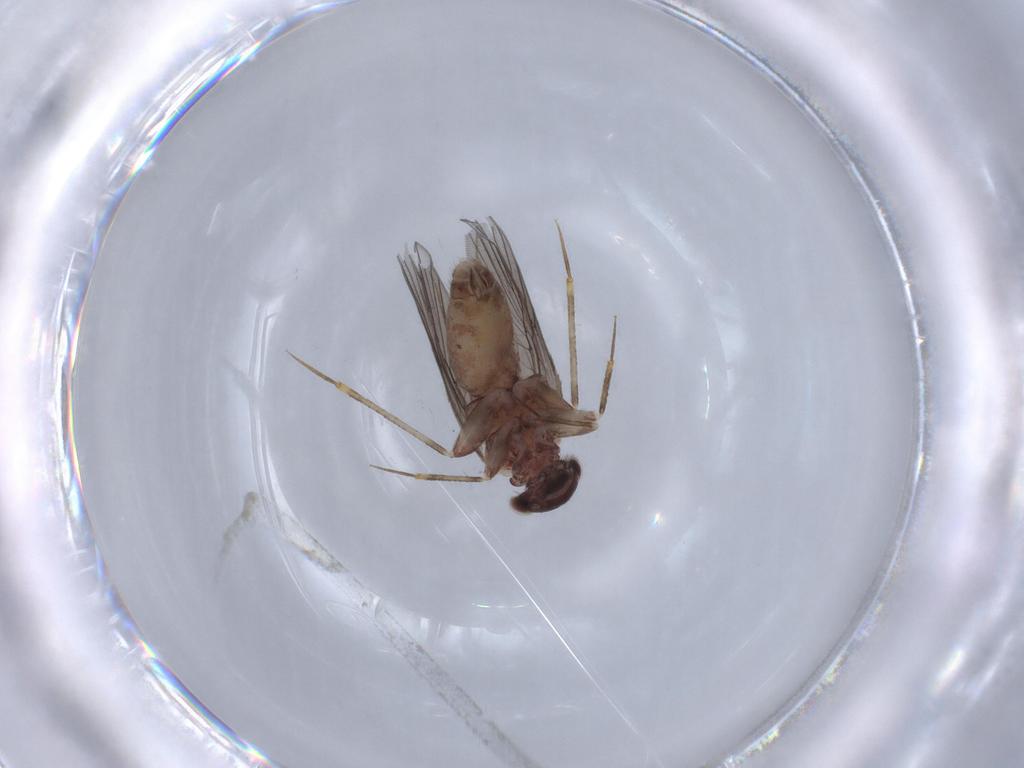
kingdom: Animalia
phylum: Arthropoda
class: Insecta
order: Psocodea
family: Lepidopsocidae
